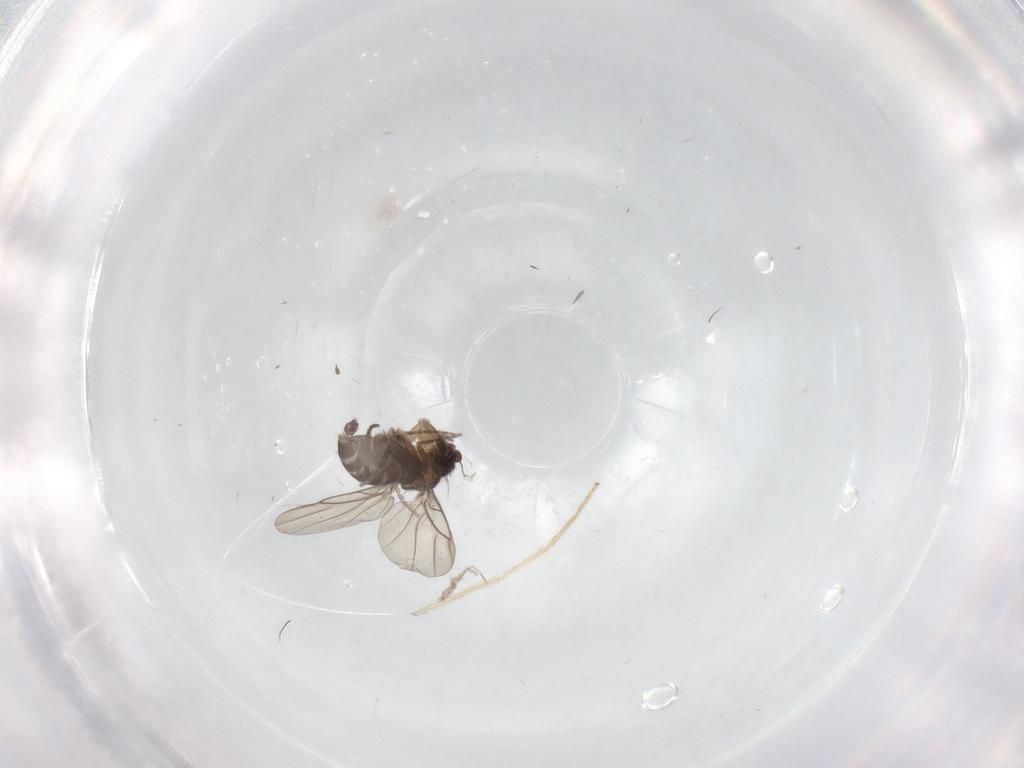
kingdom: Animalia
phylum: Arthropoda
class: Insecta
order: Diptera
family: Chironomidae
